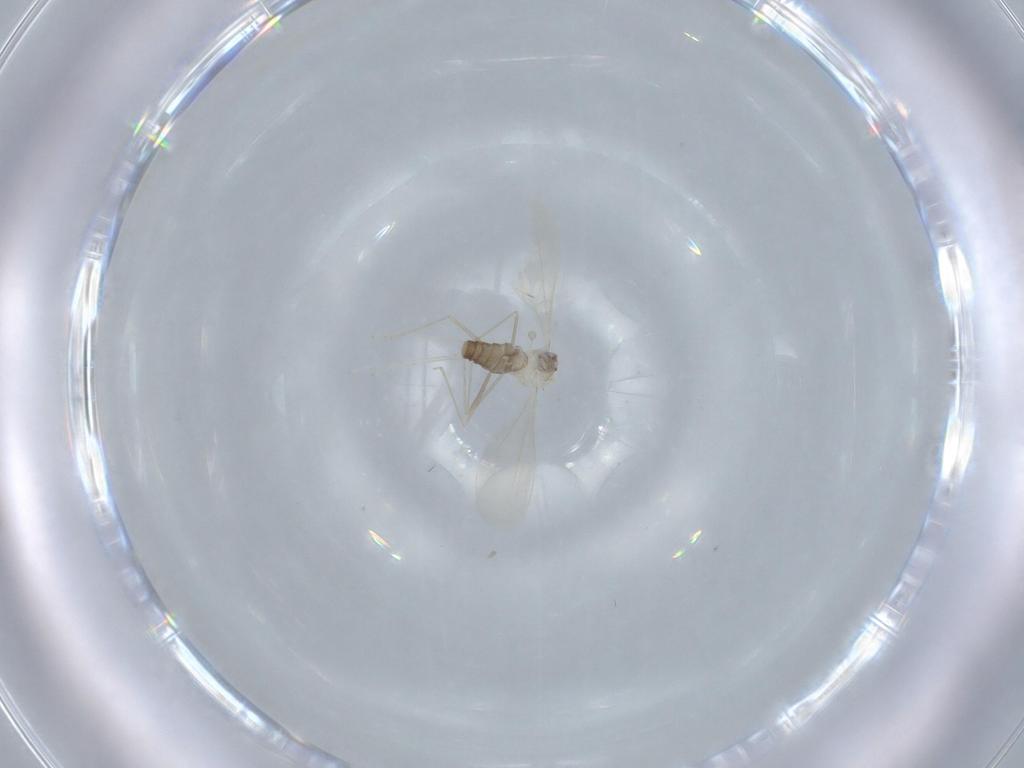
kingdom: Animalia
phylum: Arthropoda
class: Insecta
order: Diptera
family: Cecidomyiidae
